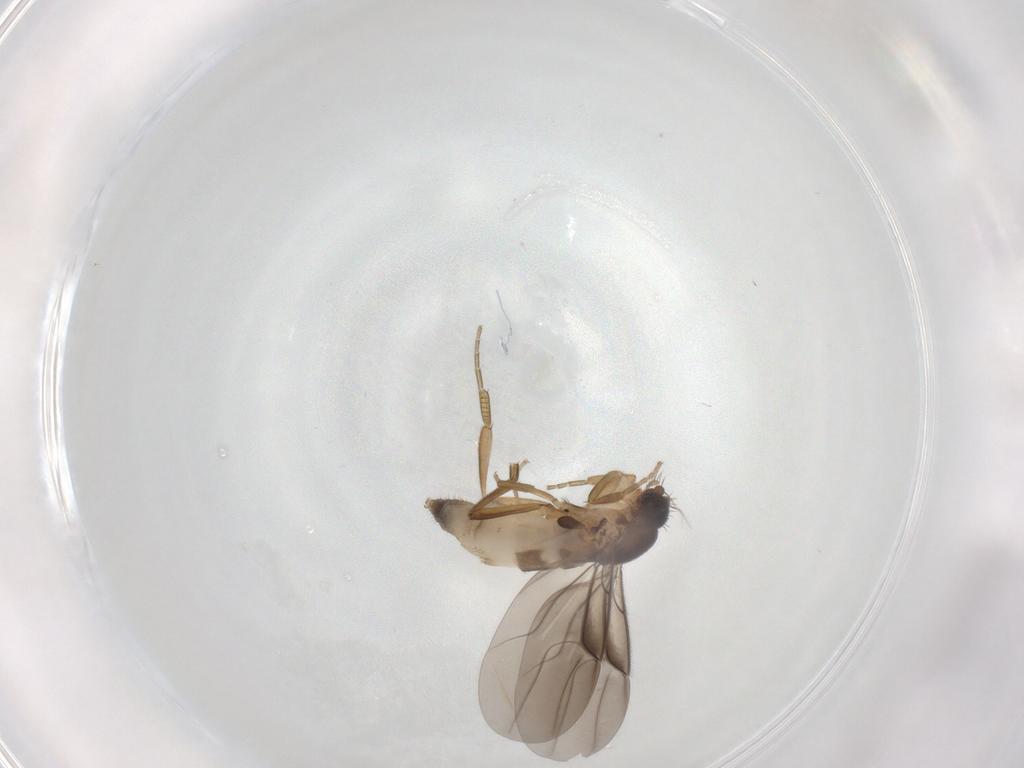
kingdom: Animalia
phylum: Arthropoda
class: Insecta
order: Diptera
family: Phoridae
